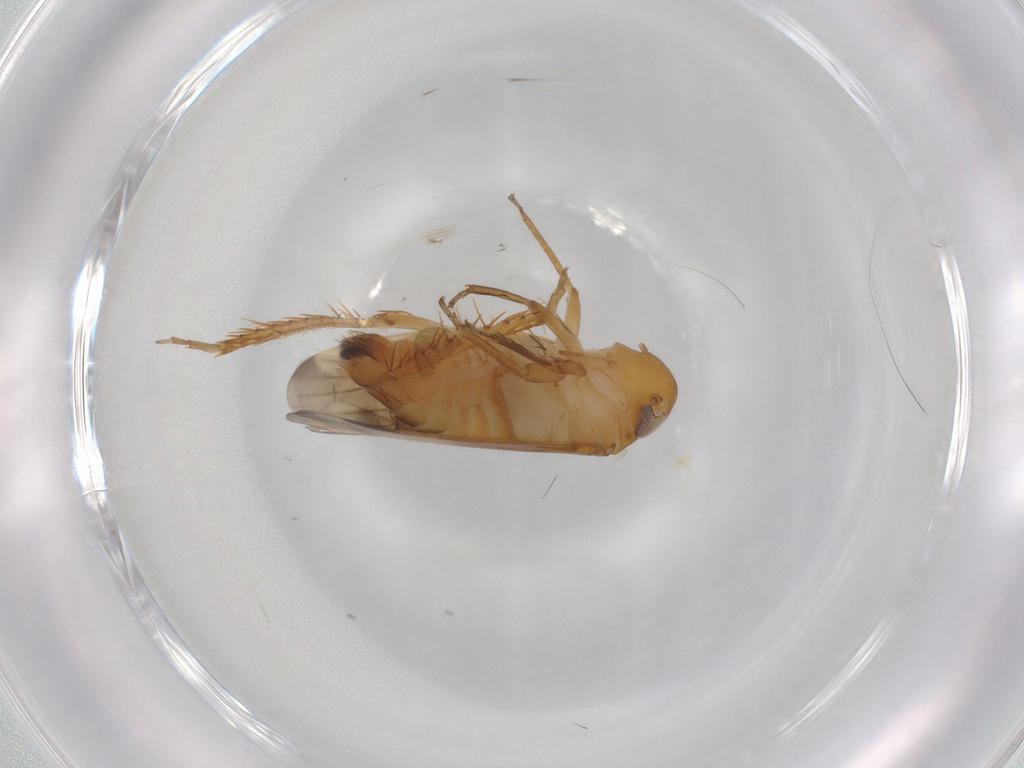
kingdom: Animalia
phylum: Arthropoda
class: Insecta
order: Hemiptera
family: Cicadellidae
